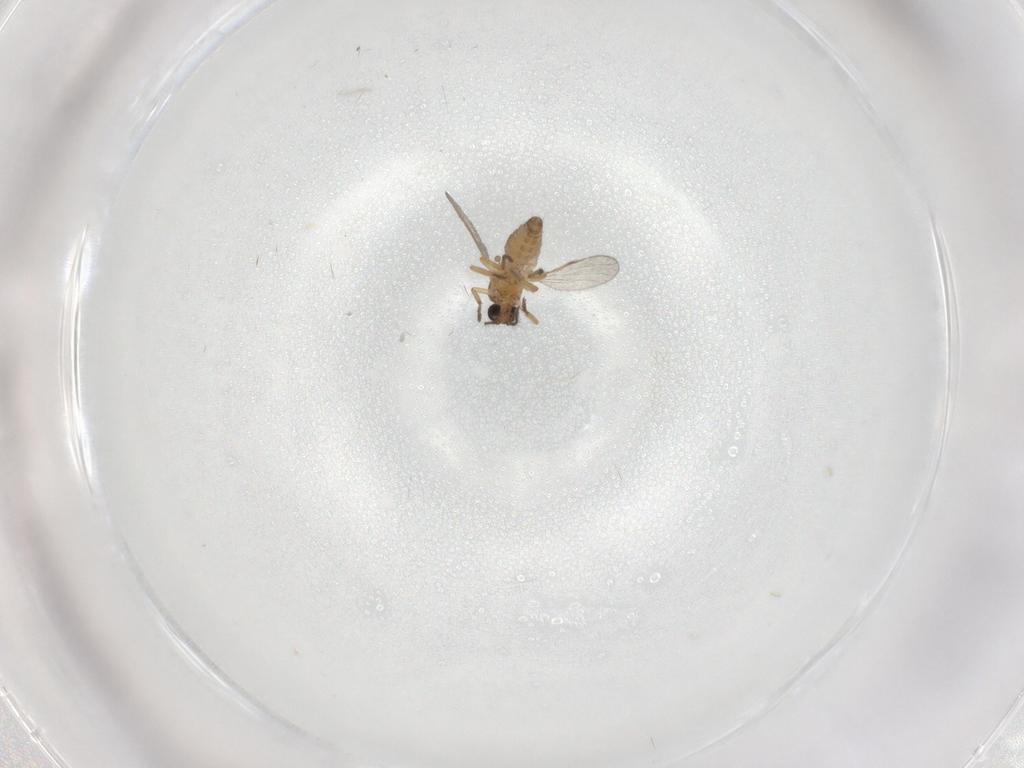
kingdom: Animalia
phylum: Arthropoda
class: Insecta
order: Diptera
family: Ceratopogonidae
